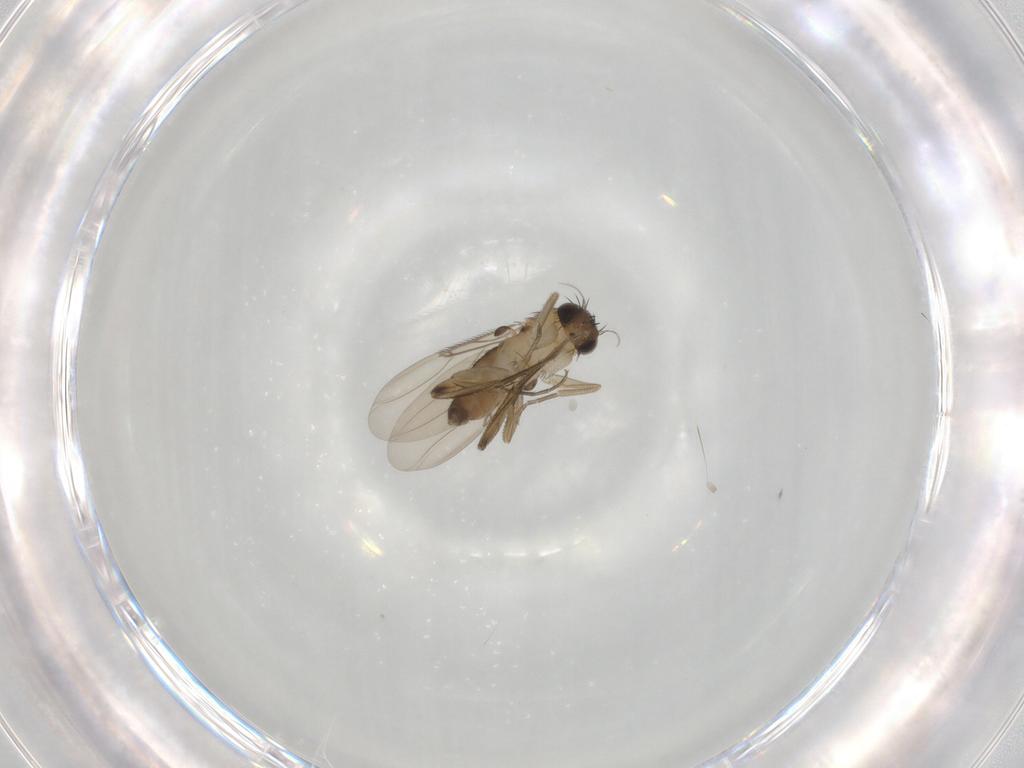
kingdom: Animalia
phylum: Arthropoda
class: Insecta
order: Diptera
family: Phoridae
